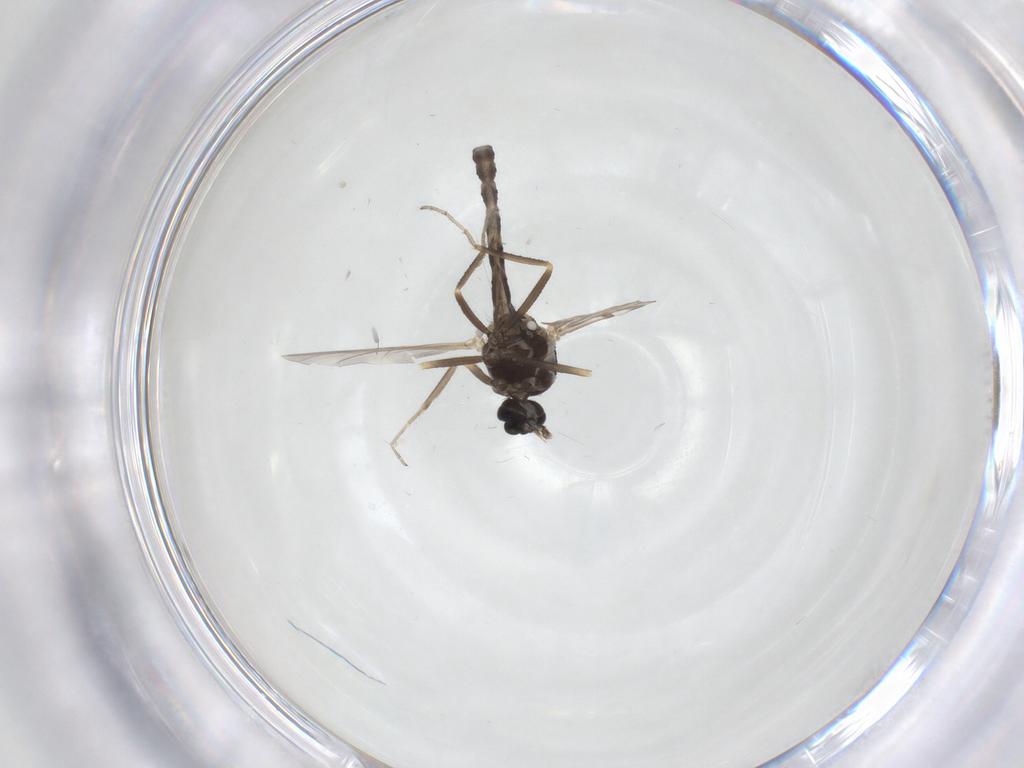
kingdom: Animalia
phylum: Arthropoda
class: Insecta
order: Diptera
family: Ceratopogonidae
